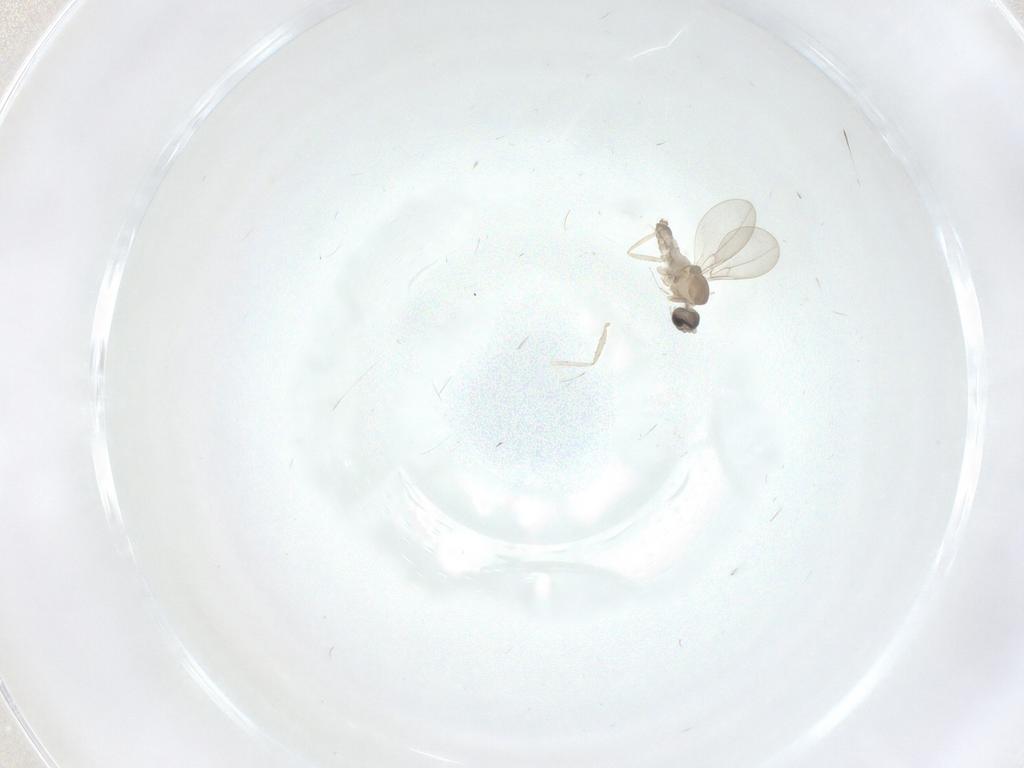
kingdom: Animalia
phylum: Arthropoda
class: Insecta
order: Diptera
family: Cecidomyiidae
